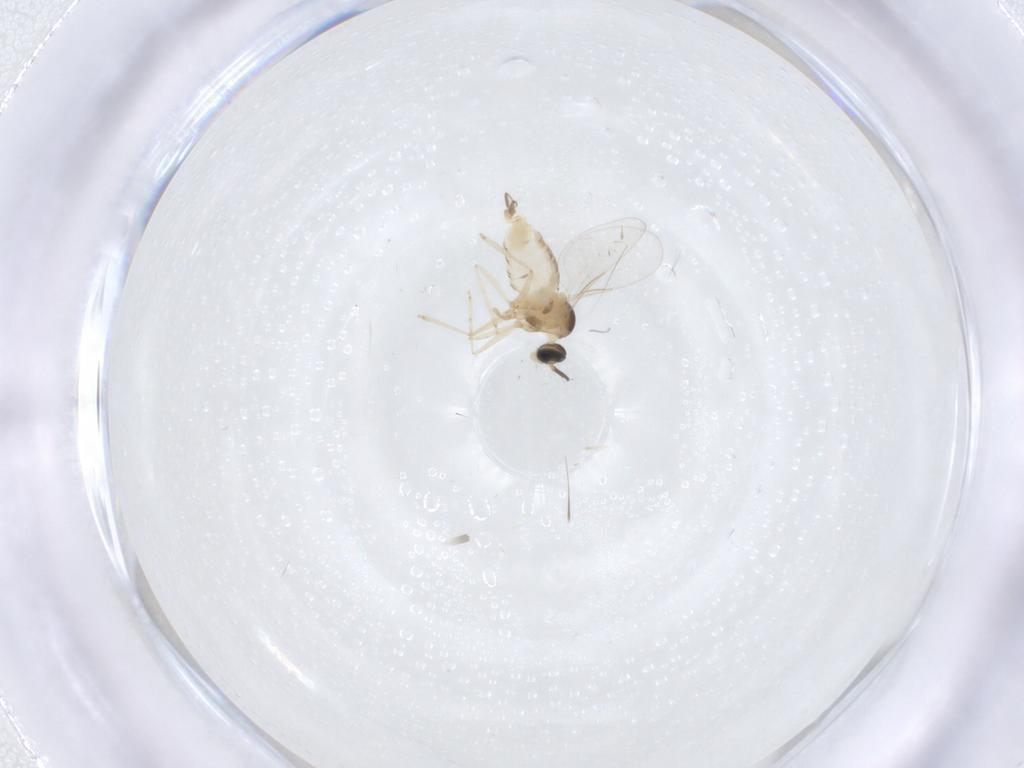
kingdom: Animalia
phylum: Arthropoda
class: Insecta
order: Diptera
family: Cecidomyiidae
